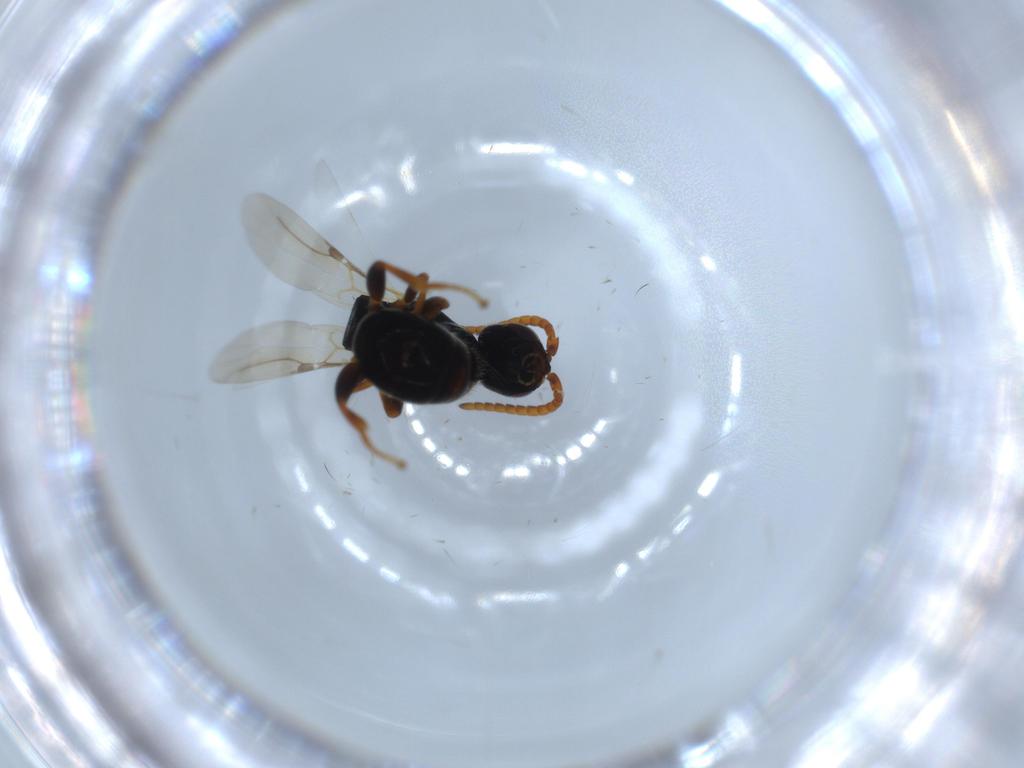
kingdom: Animalia
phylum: Arthropoda
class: Insecta
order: Hymenoptera
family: Bethylidae
